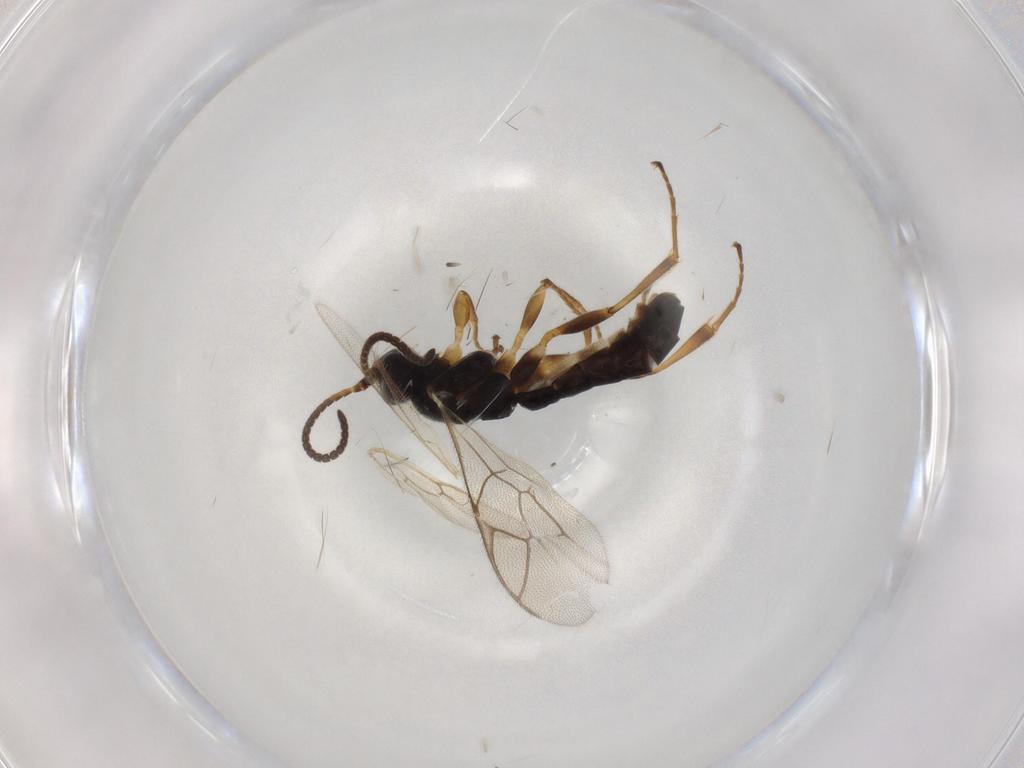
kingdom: Animalia
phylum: Arthropoda
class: Insecta
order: Hymenoptera
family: Ichneumonidae
